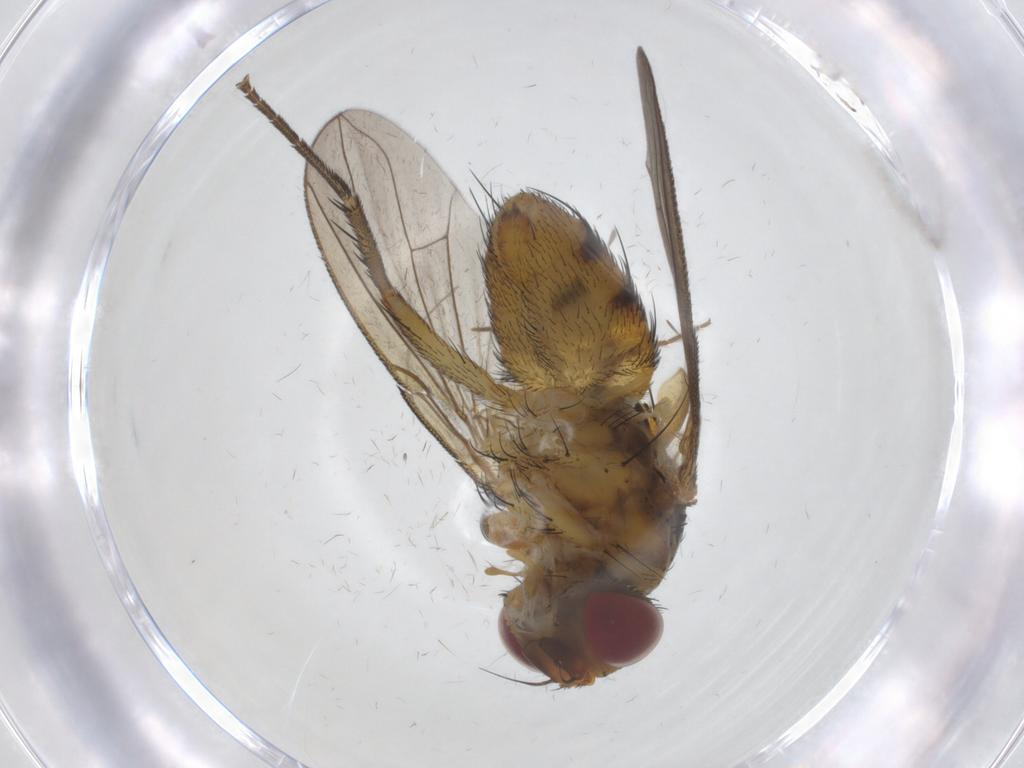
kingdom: Animalia
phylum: Arthropoda
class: Insecta
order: Diptera
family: Tachinidae
